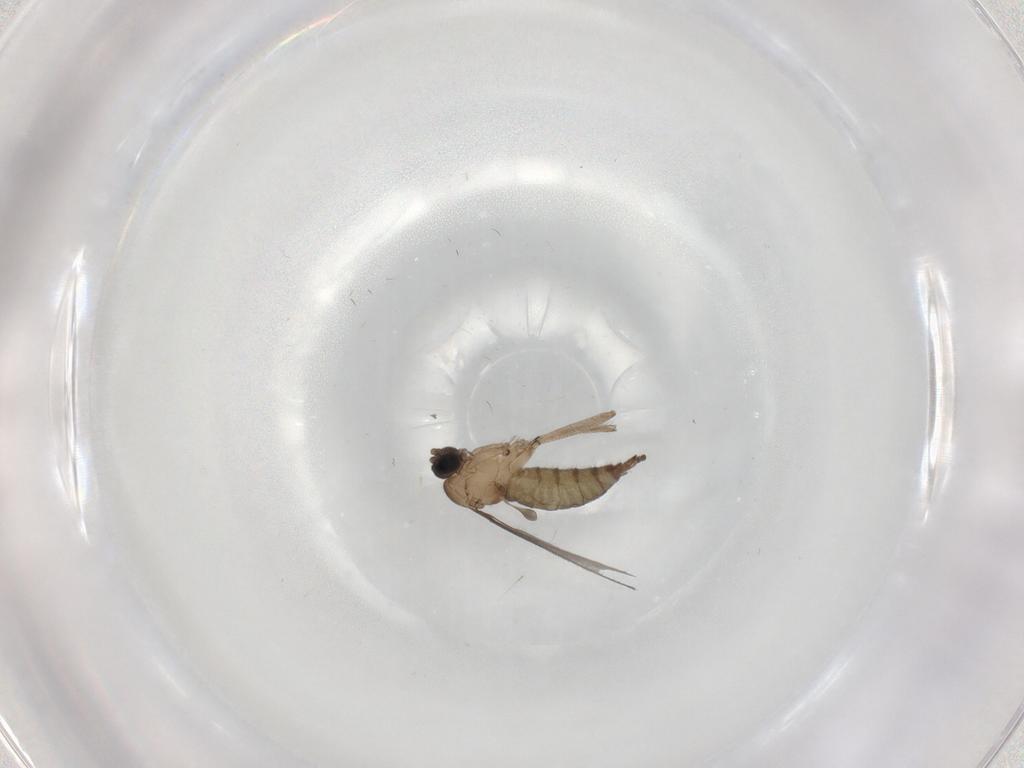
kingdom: Animalia
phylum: Arthropoda
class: Insecta
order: Diptera
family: Sciaridae
